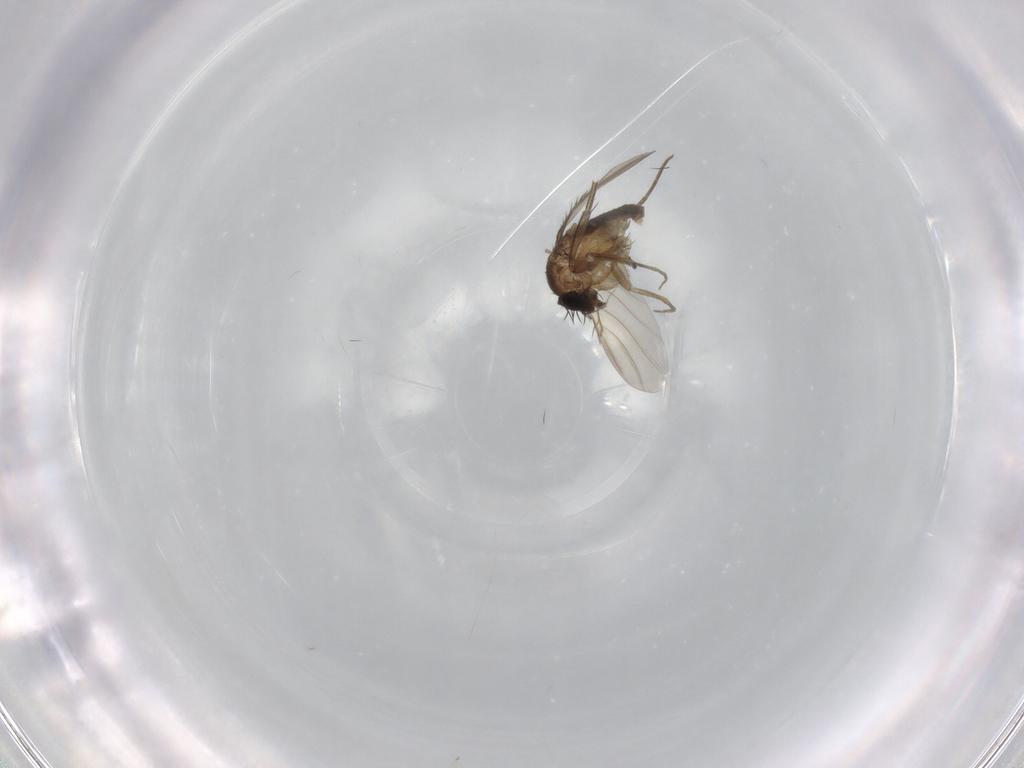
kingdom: Animalia
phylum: Arthropoda
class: Insecta
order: Diptera
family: Phoridae
